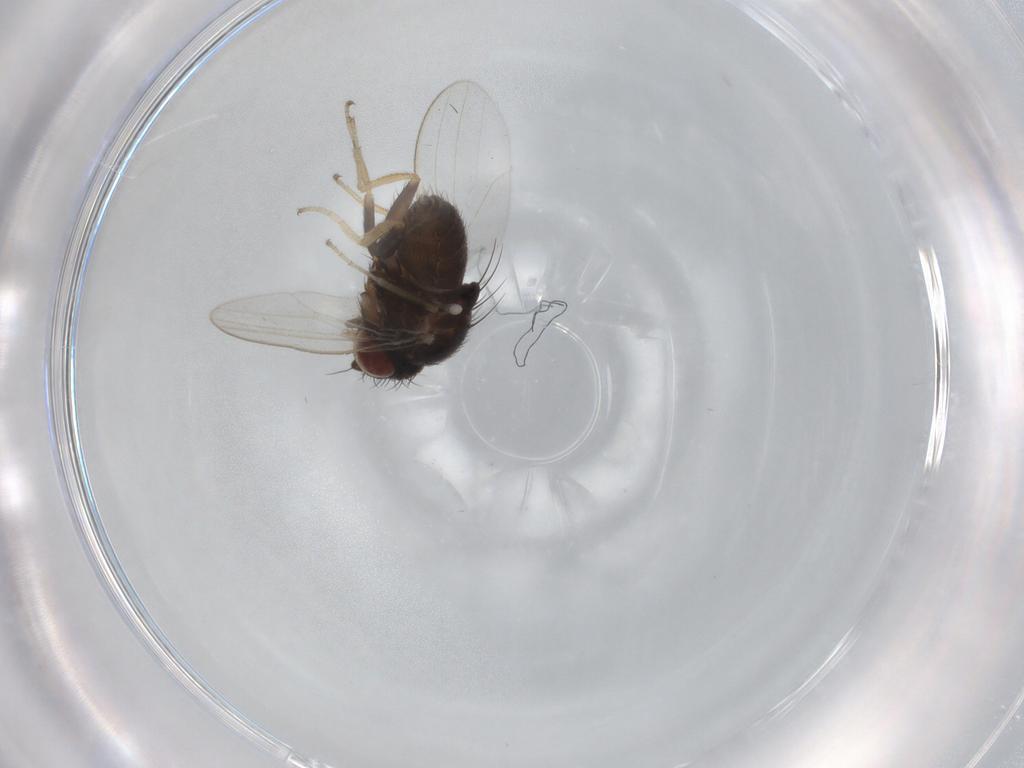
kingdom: Animalia
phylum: Arthropoda
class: Insecta
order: Diptera
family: Milichiidae
